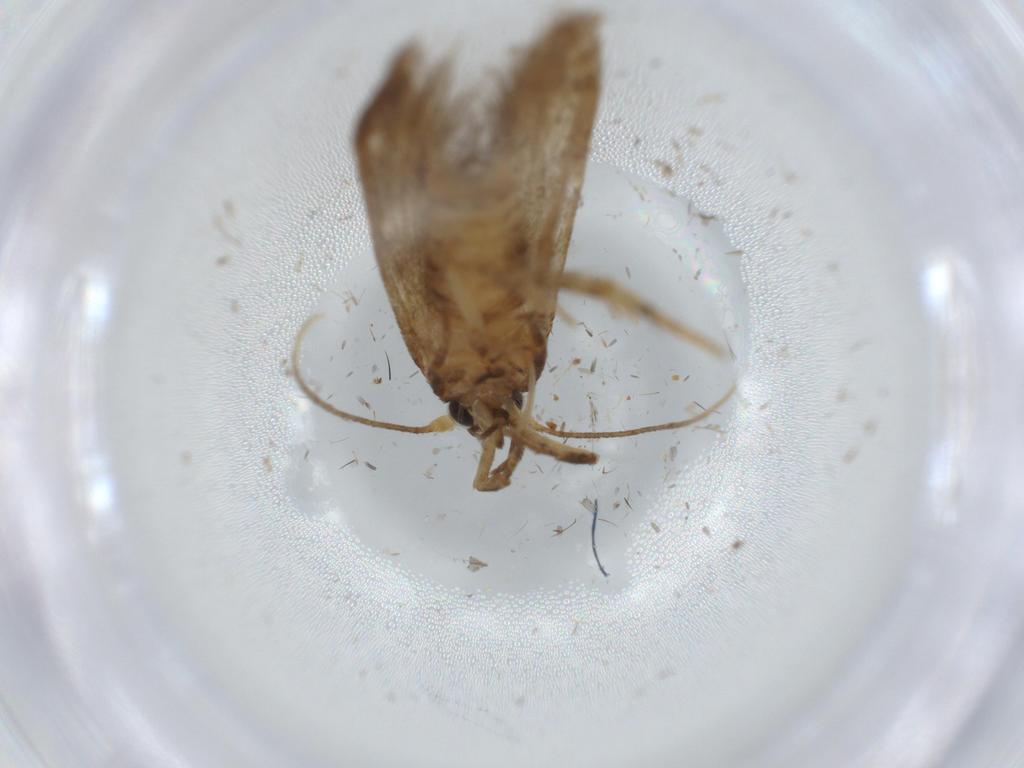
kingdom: Animalia
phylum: Arthropoda
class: Insecta
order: Lepidoptera
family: Coleophoridae
